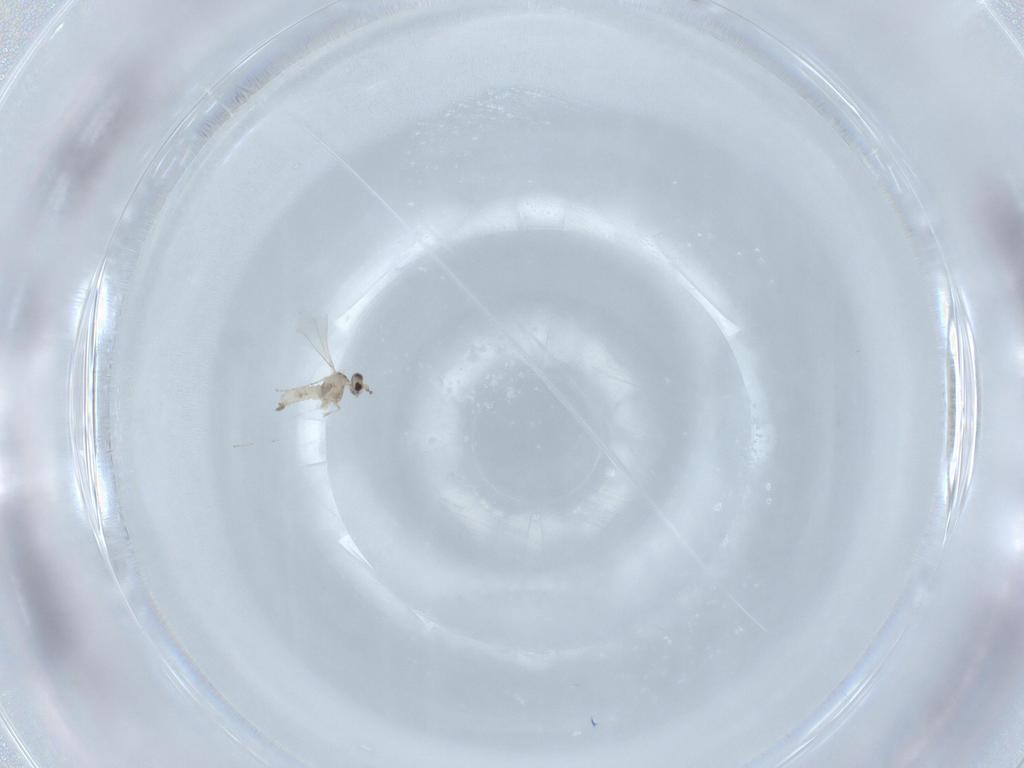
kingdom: Animalia
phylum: Arthropoda
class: Insecta
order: Diptera
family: Cecidomyiidae
